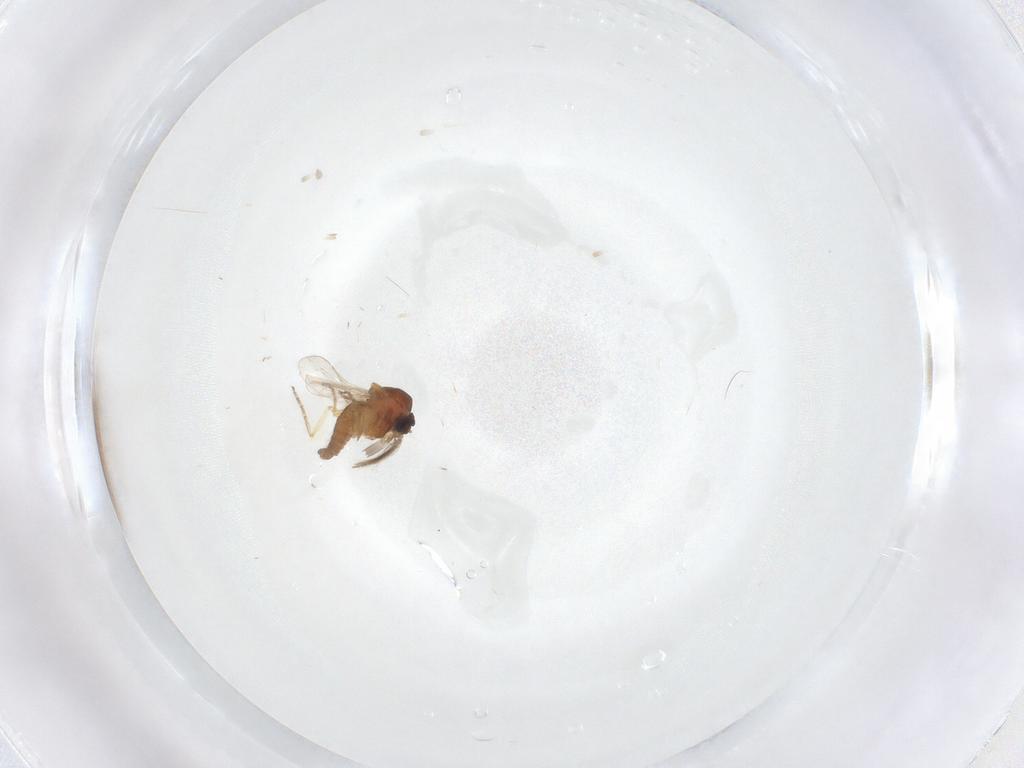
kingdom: Animalia
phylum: Arthropoda
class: Insecta
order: Diptera
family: Ceratopogonidae
